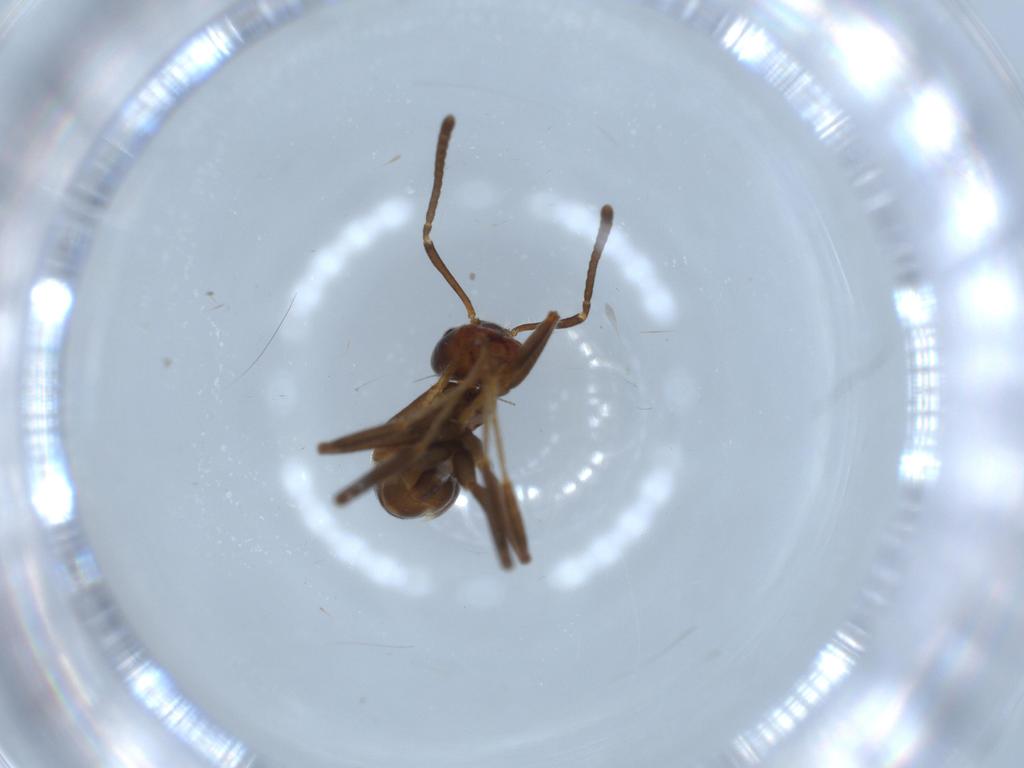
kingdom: Animalia
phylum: Arthropoda
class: Insecta
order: Hymenoptera
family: Formicidae
